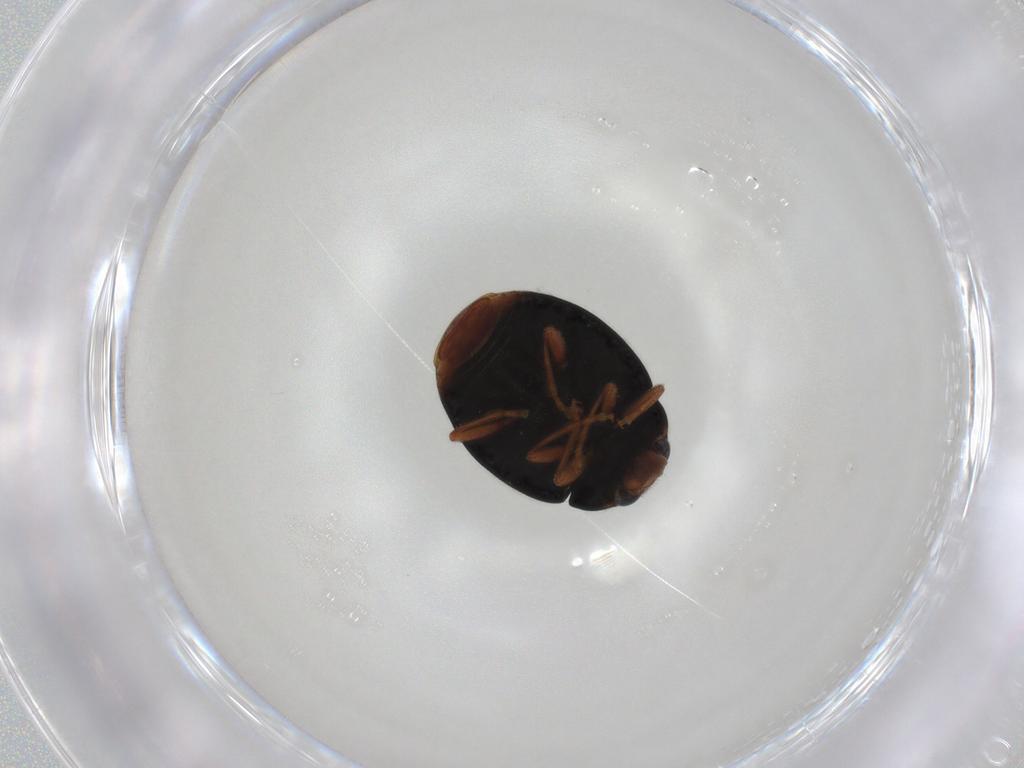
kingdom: Animalia
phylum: Arthropoda
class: Insecta
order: Coleoptera
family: Coccinellidae
